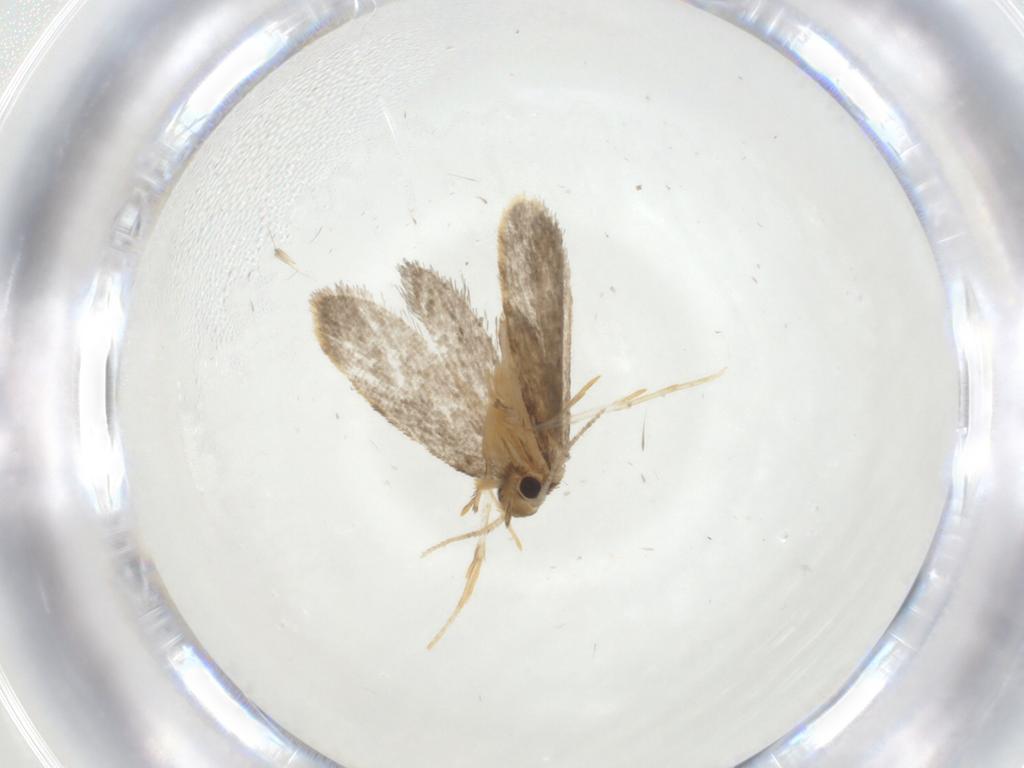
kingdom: Animalia
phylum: Arthropoda
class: Insecta
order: Lepidoptera
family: Psychidae
